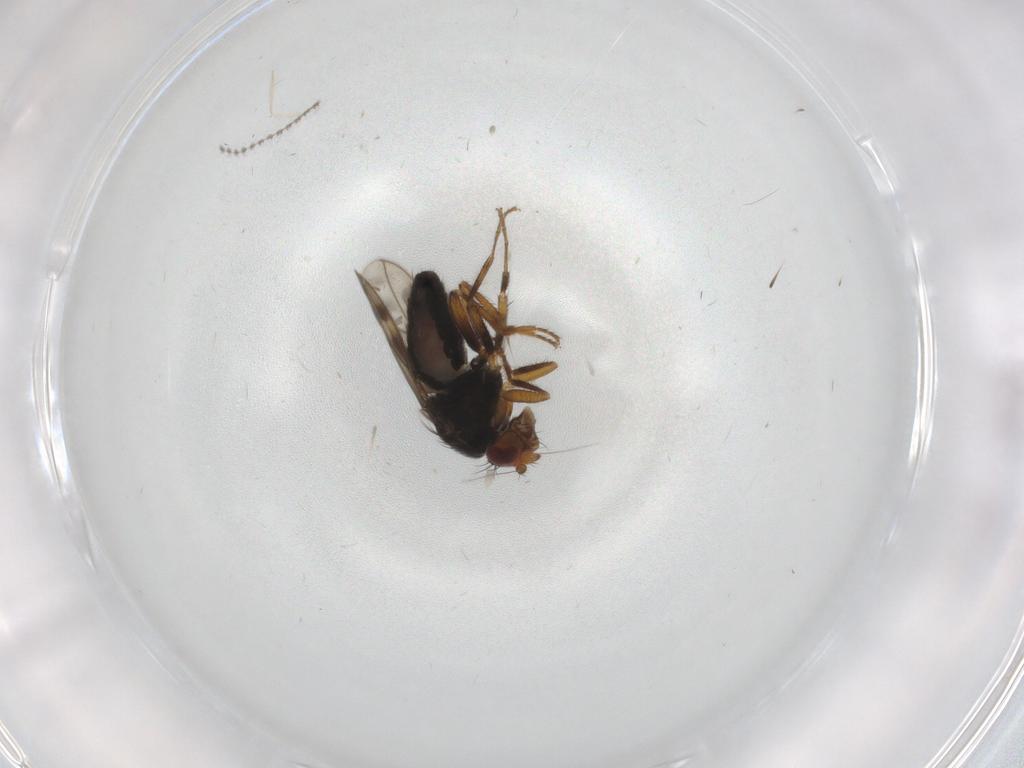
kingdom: Animalia
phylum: Arthropoda
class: Insecta
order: Diptera
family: Sphaeroceridae
